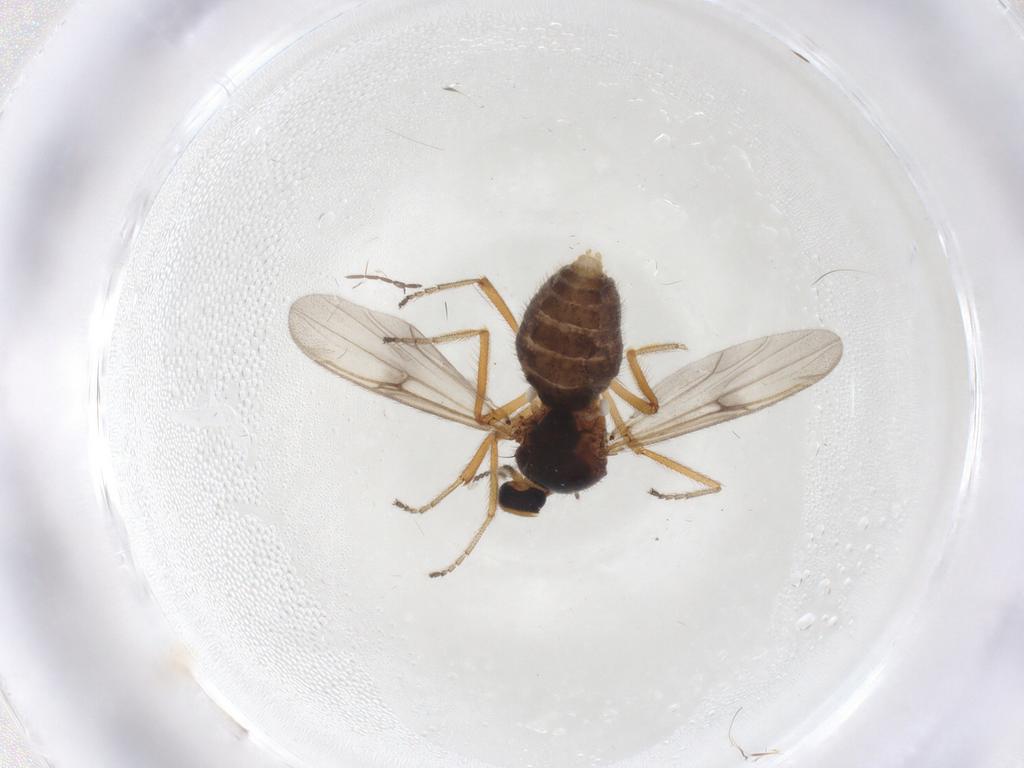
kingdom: Animalia
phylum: Arthropoda
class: Insecta
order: Diptera
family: Ceratopogonidae
